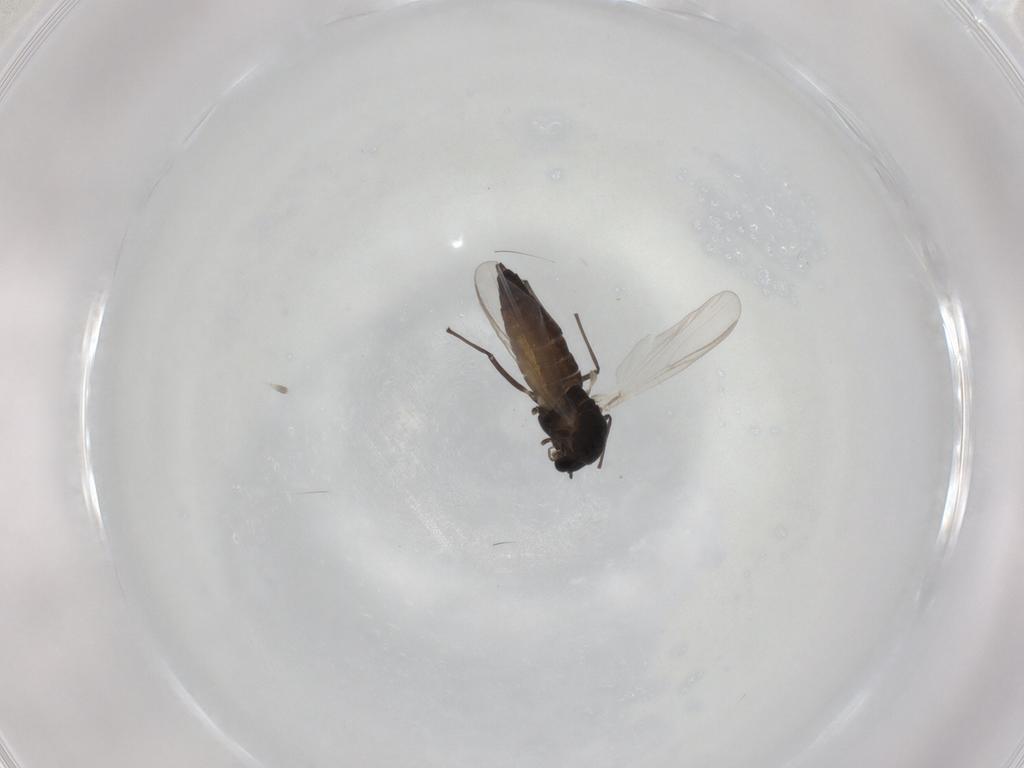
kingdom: Animalia
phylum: Arthropoda
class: Insecta
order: Diptera
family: Chironomidae
